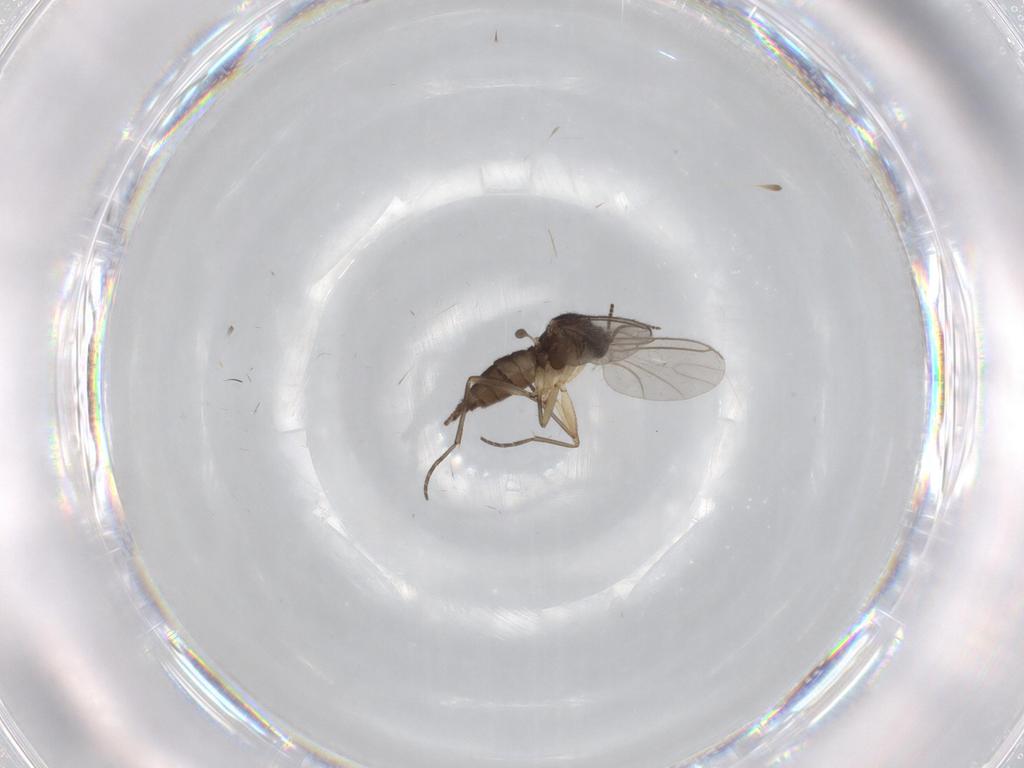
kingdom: Animalia
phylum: Arthropoda
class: Insecta
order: Diptera
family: Sciaridae
